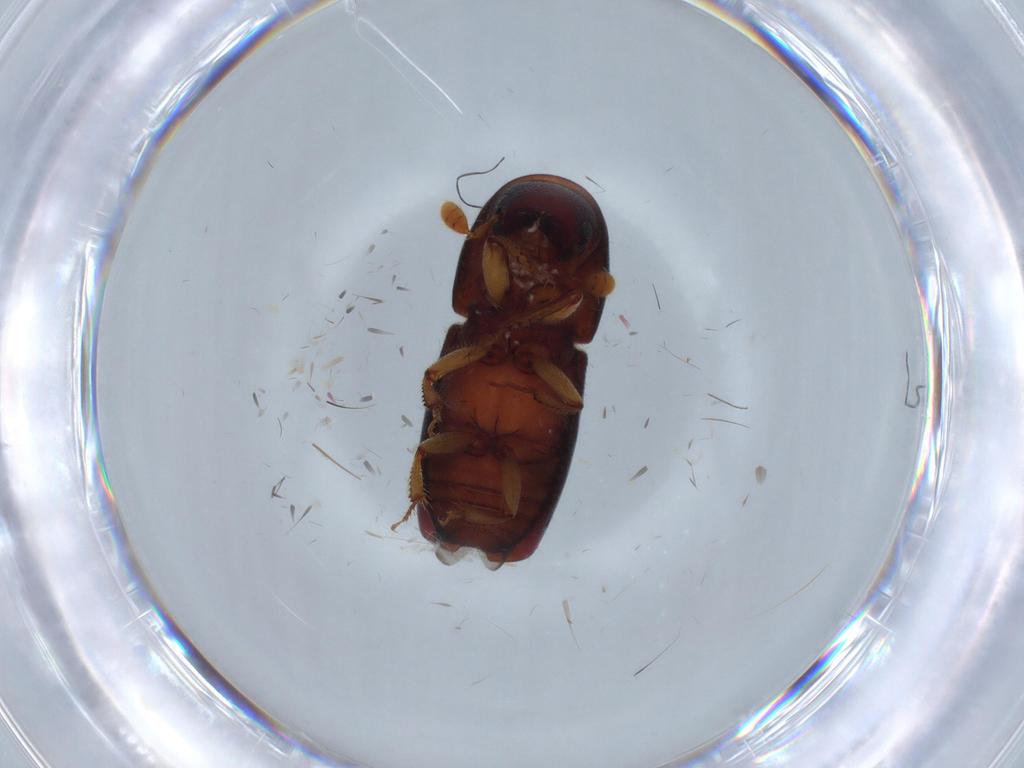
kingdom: Animalia
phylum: Arthropoda
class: Insecta
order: Coleoptera
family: Curculionidae
